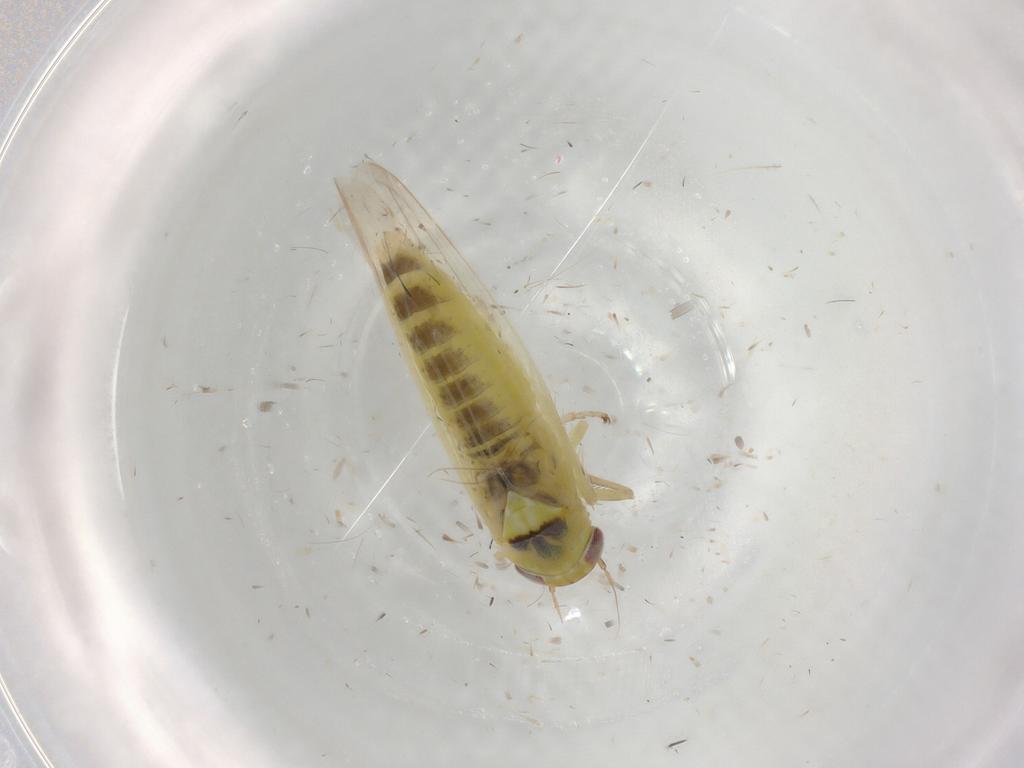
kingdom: Animalia
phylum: Arthropoda
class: Insecta
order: Hemiptera
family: Cicadellidae
